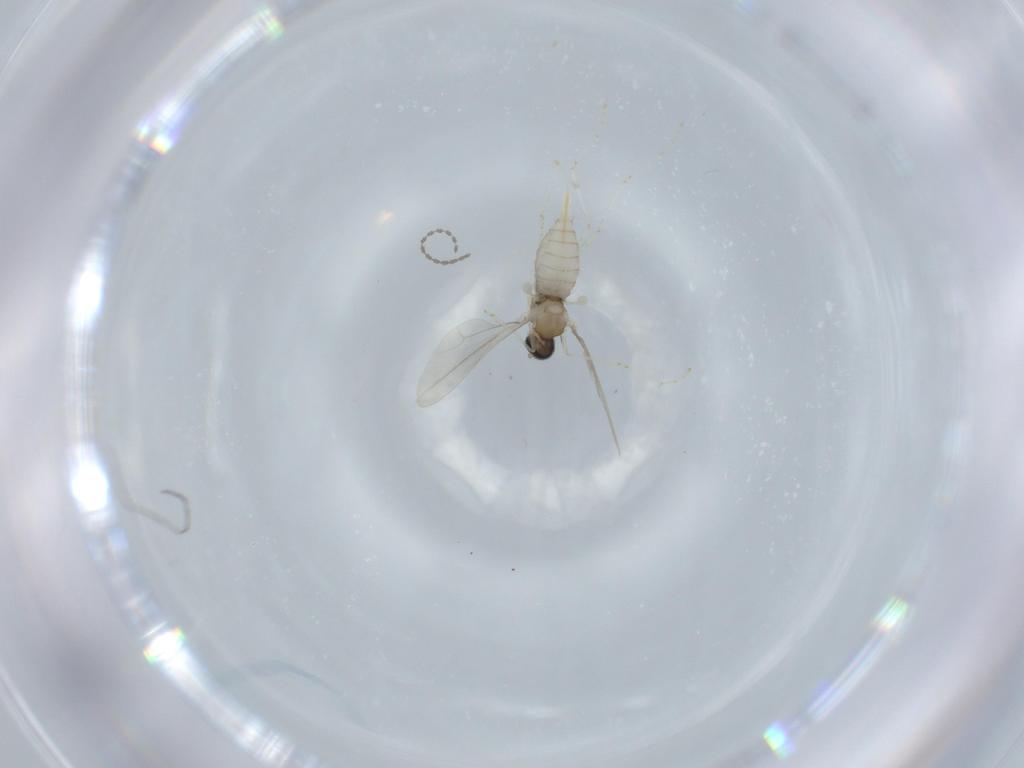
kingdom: Animalia
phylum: Arthropoda
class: Insecta
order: Diptera
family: Cecidomyiidae
